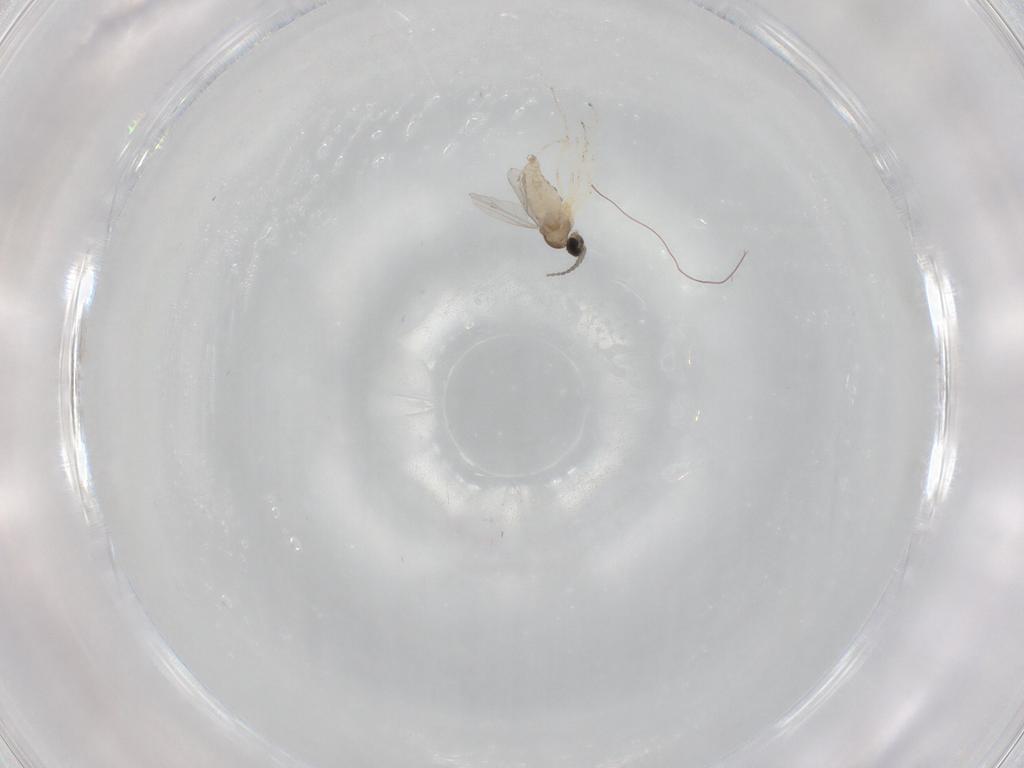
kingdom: Animalia
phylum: Arthropoda
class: Insecta
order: Diptera
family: Cecidomyiidae
